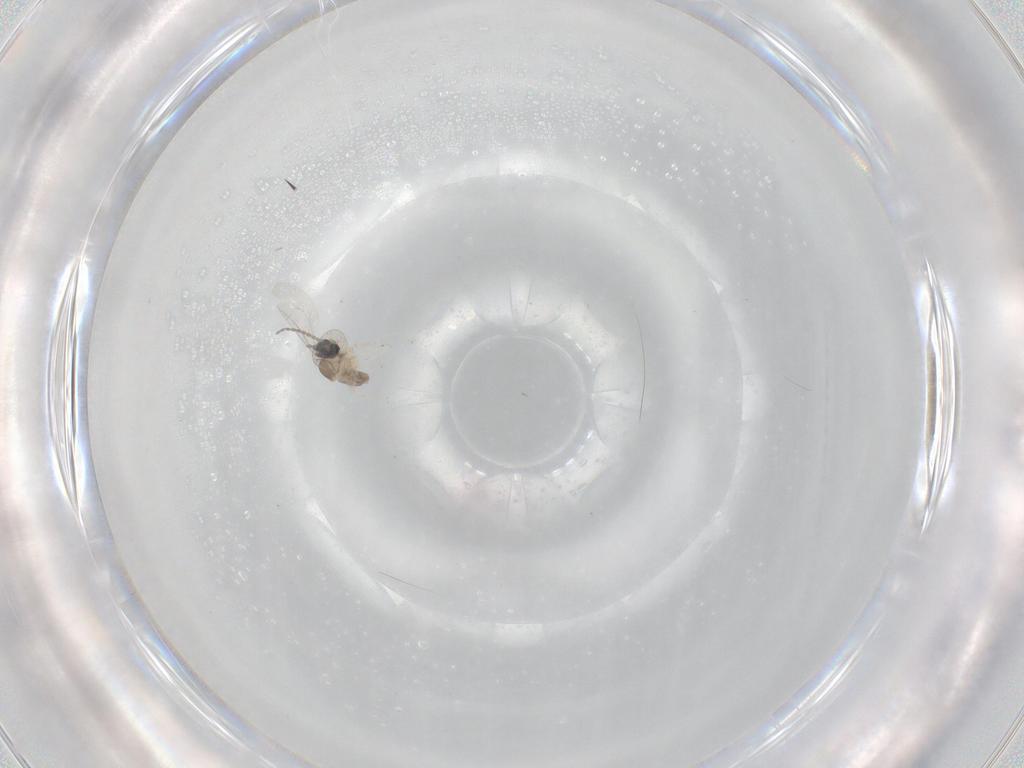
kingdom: Animalia
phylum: Arthropoda
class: Insecta
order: Diptera
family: Cecidomyiidae
